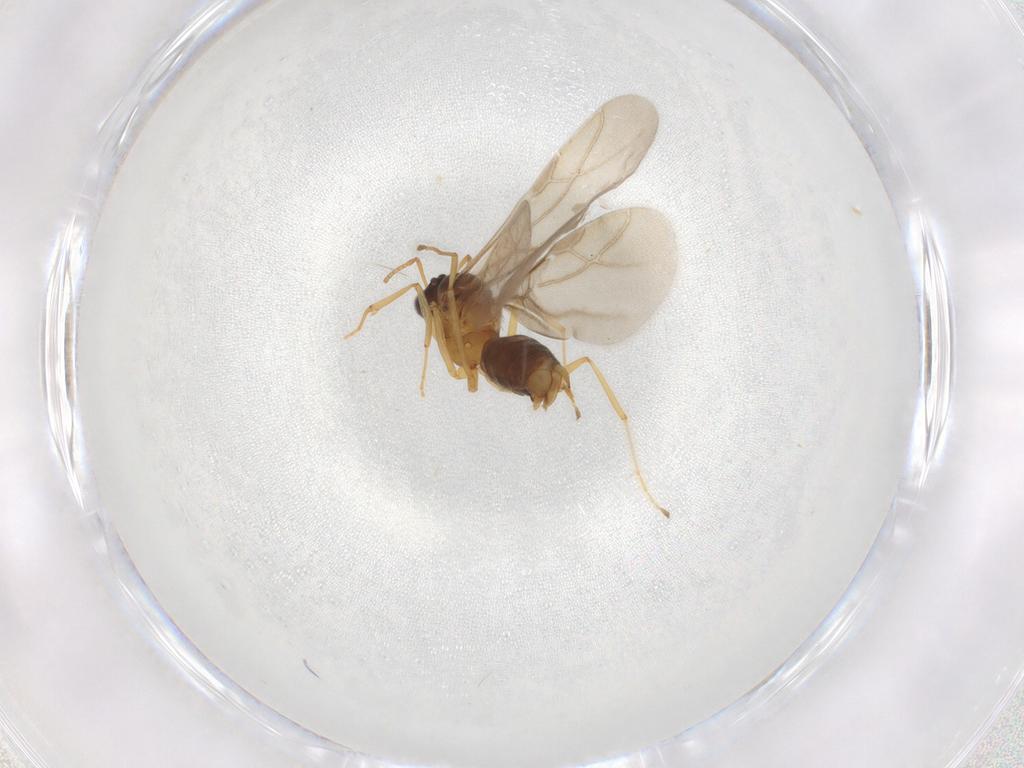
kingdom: Animalia
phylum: Arthropoda
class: Insecta
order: Hymenoptera
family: Formicidae
